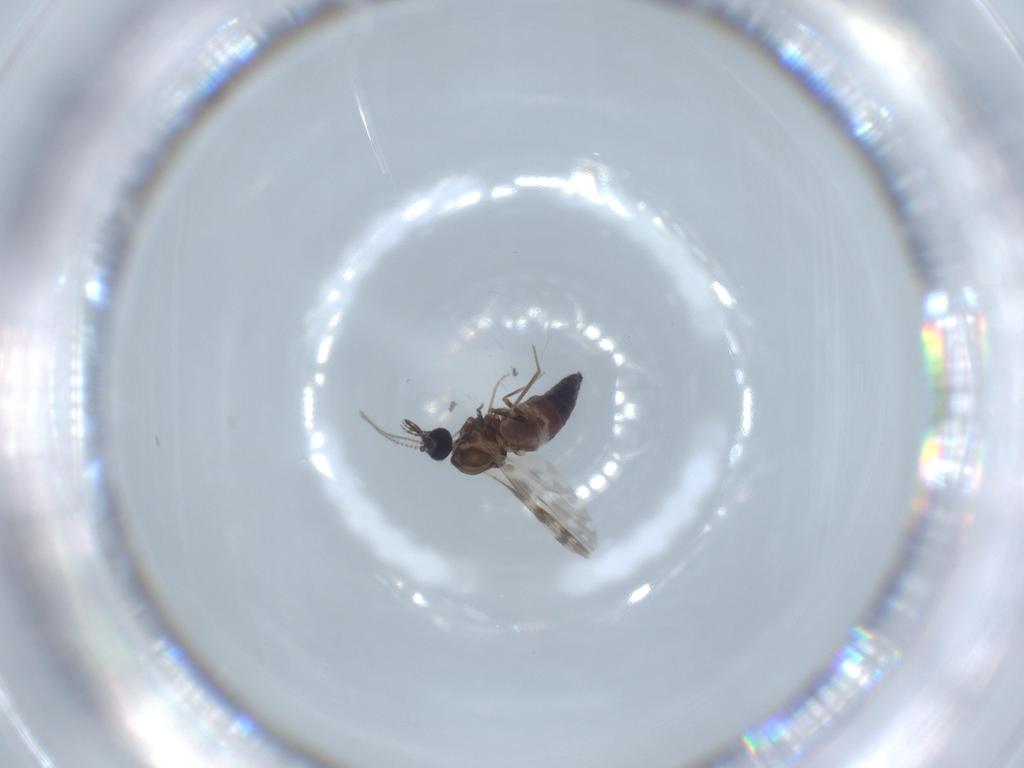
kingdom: Animalia
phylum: Arthropoda
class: Insecta
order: Diptera
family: Ceratopogonidae
